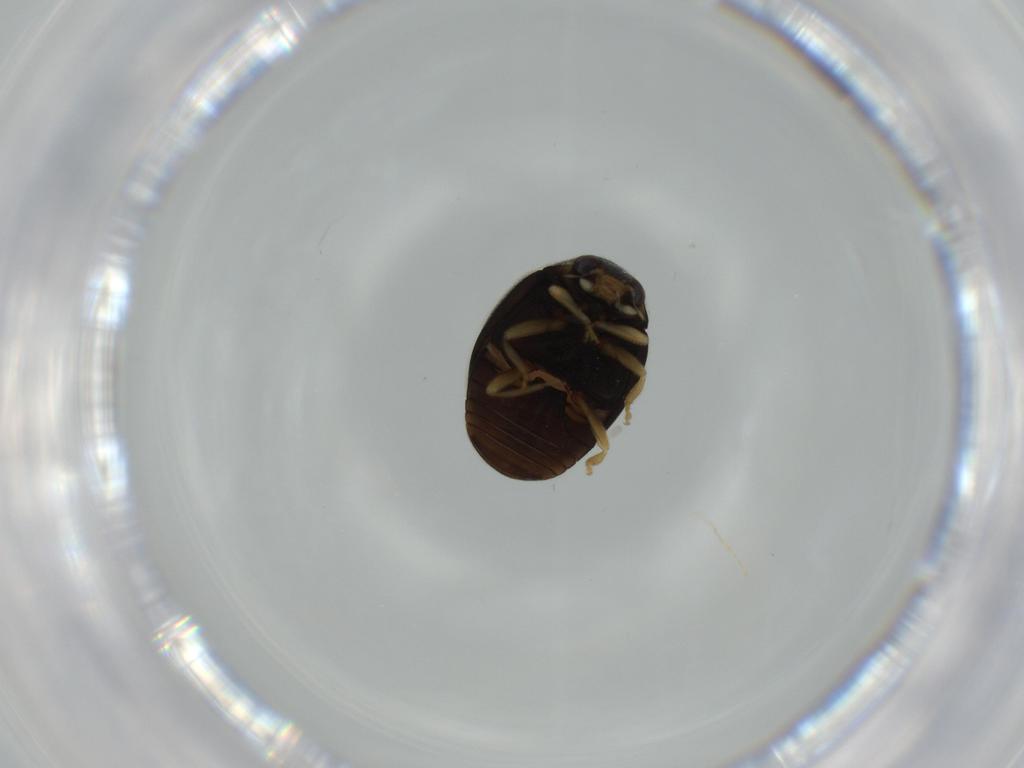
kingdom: Animalia
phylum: Arthropoda
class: Insecta
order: Coleoptera
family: Coccinellidae
